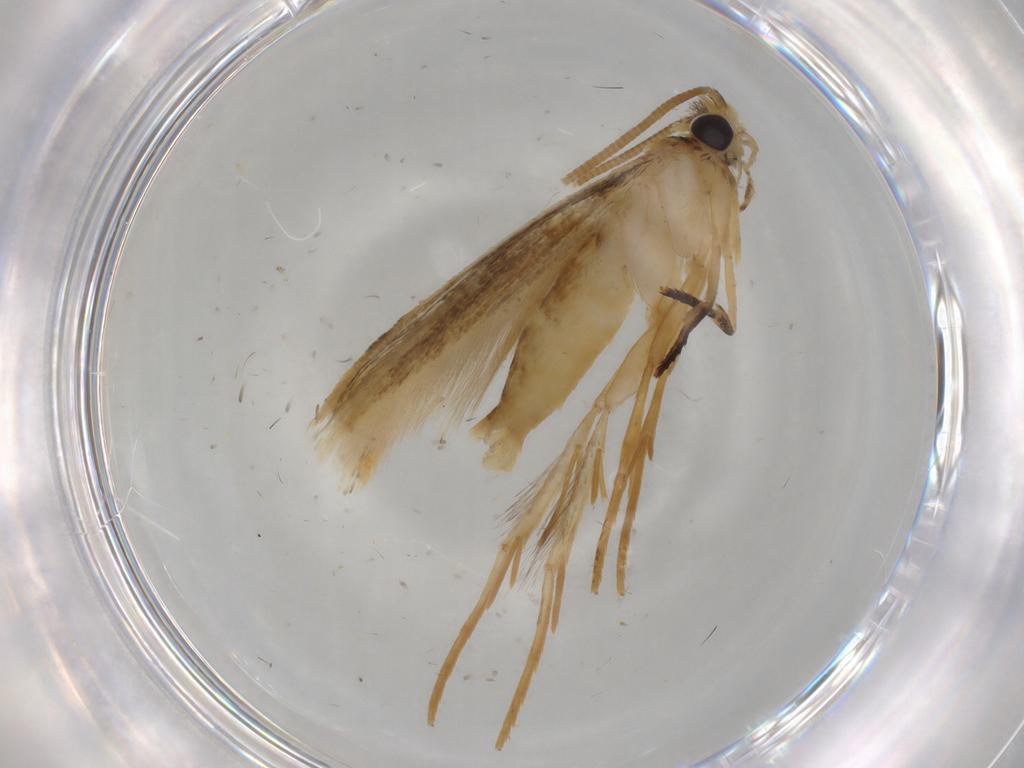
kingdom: Animalia
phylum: Arthropoda
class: Insecta
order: Lepidoptera
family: Tineidae
